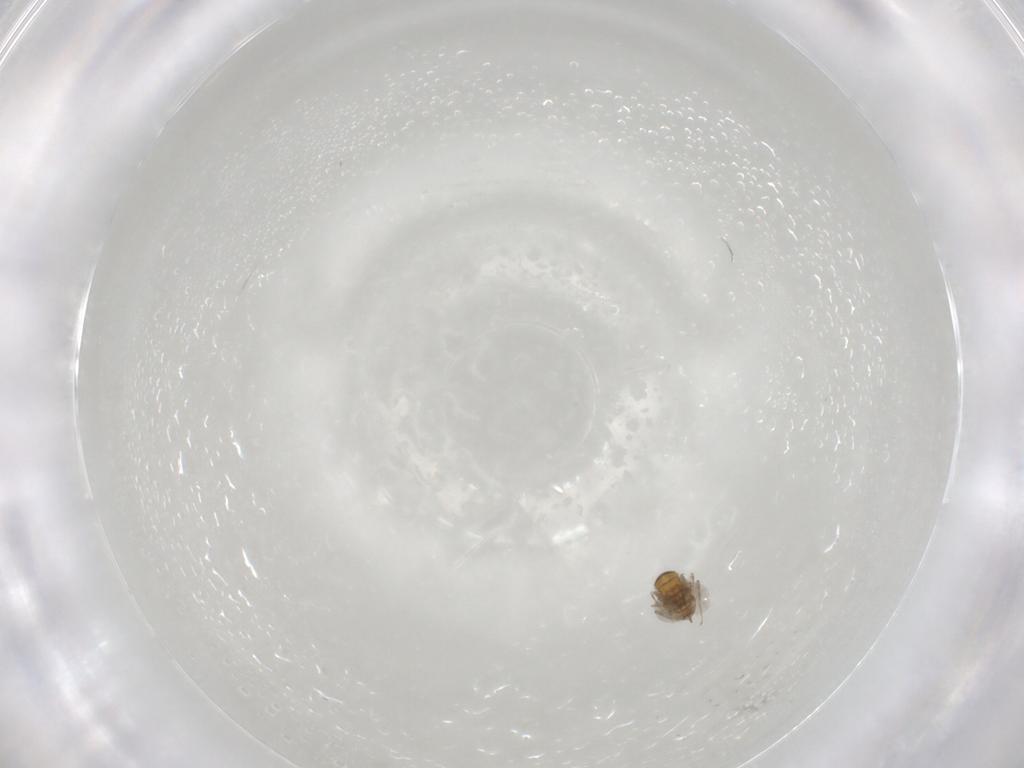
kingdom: Animalia
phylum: Arthropoda
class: Insecta
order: Hymenoptera
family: Encyrtidae
